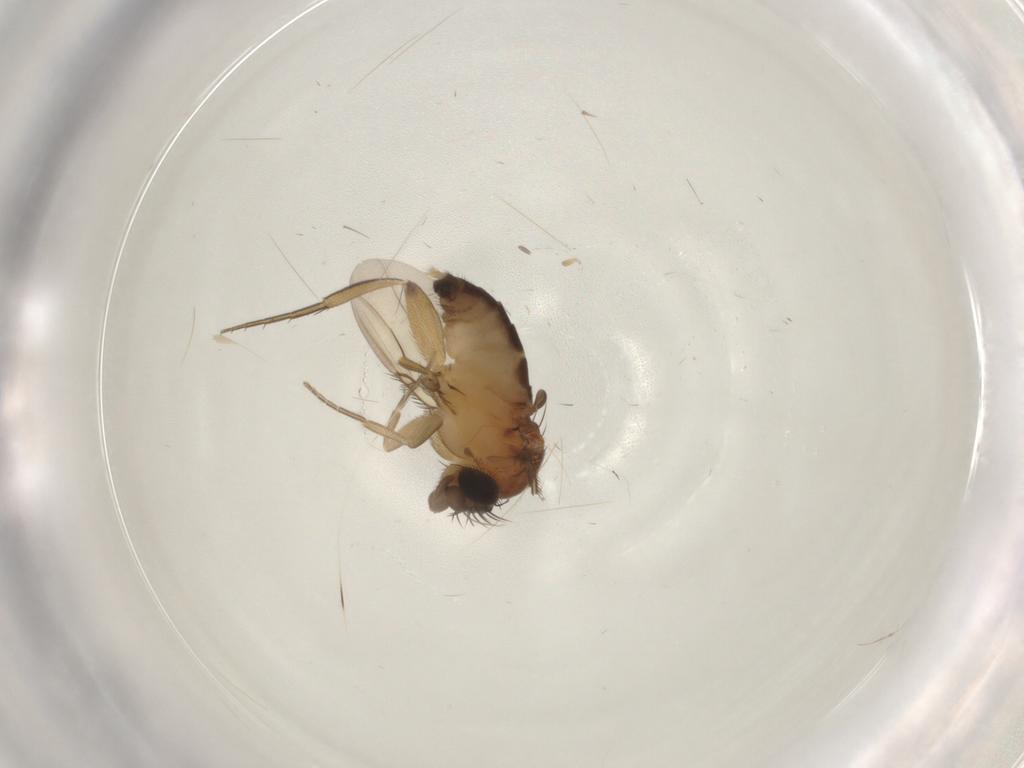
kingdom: Animalia
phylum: Arthropoda
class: Insecta
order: Diptera
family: Phoridae
